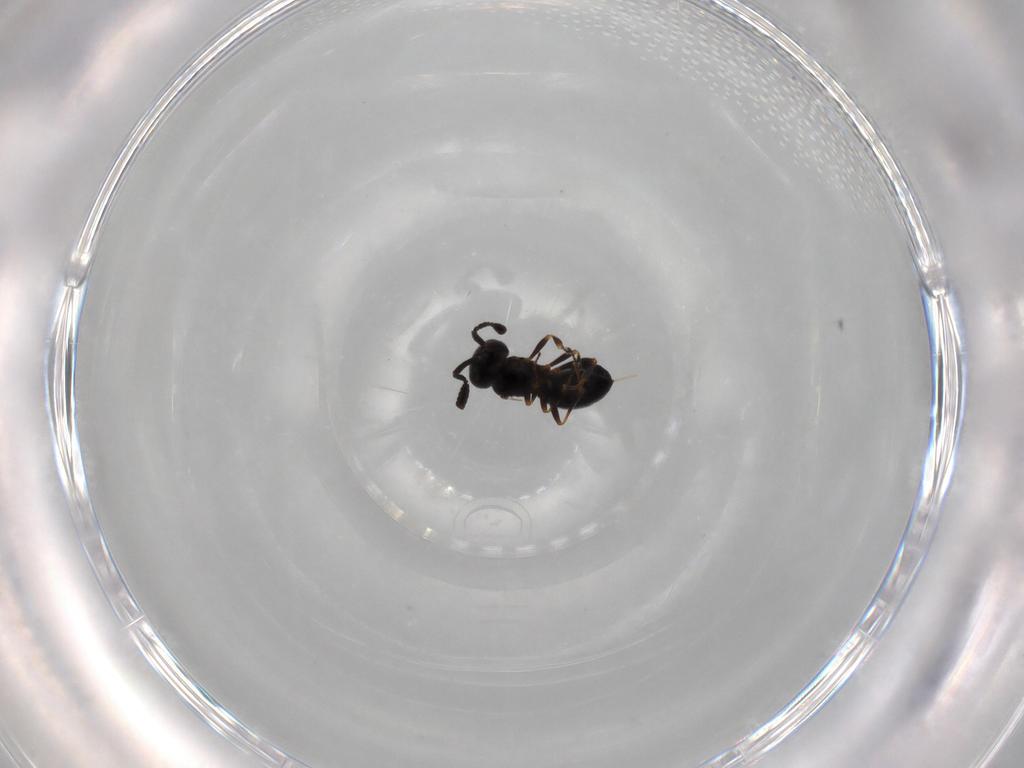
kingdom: Animalia
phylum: Arthropoda
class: Insecta
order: Hymenoptera
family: Scelionidae
